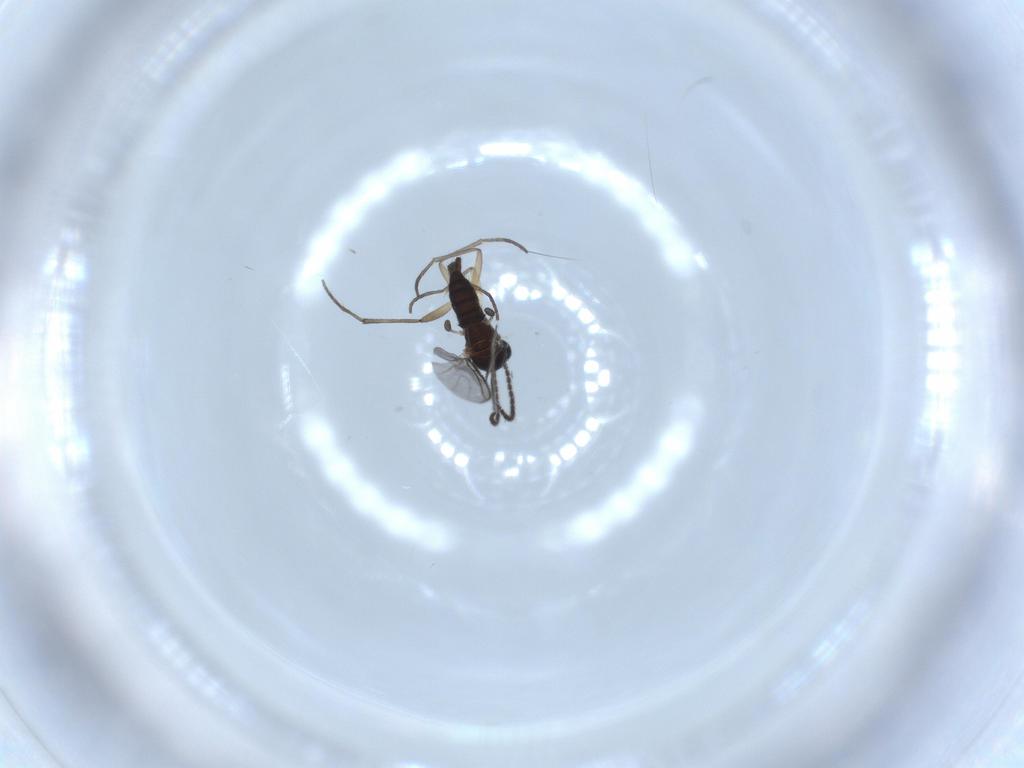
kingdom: Animalia
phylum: Arthropoda
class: Insecta
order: Diptera
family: Sciaridae
